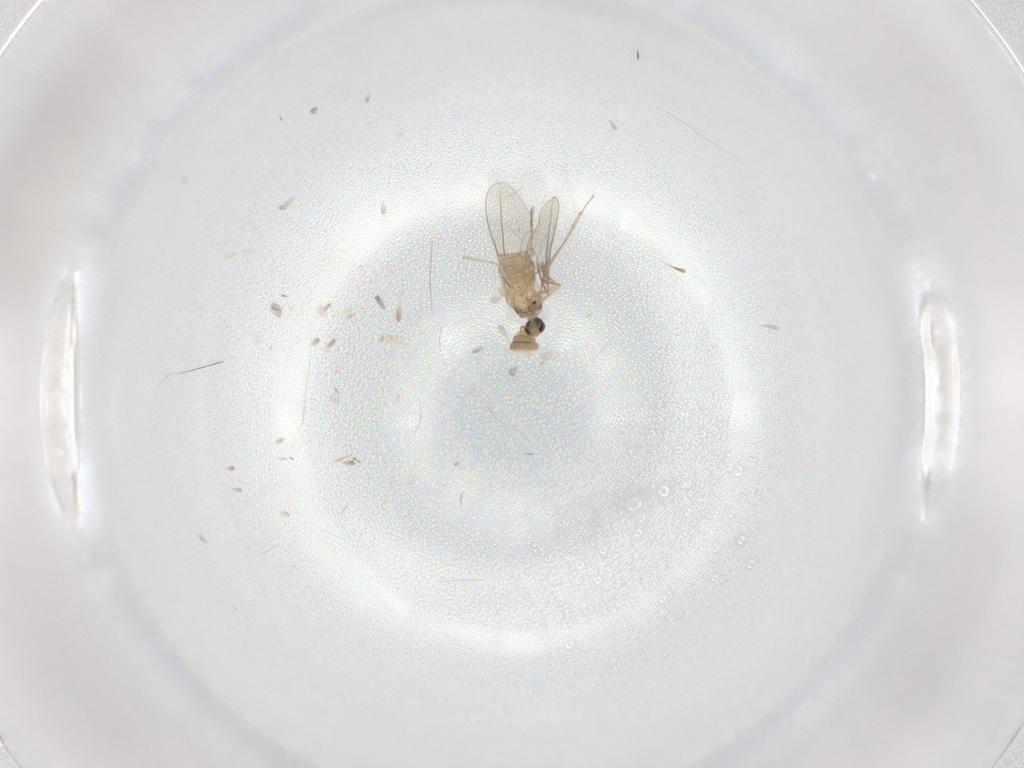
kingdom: Animalia
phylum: Arthropoda
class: Insecta
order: Diptera
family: Cecidomyiidae
